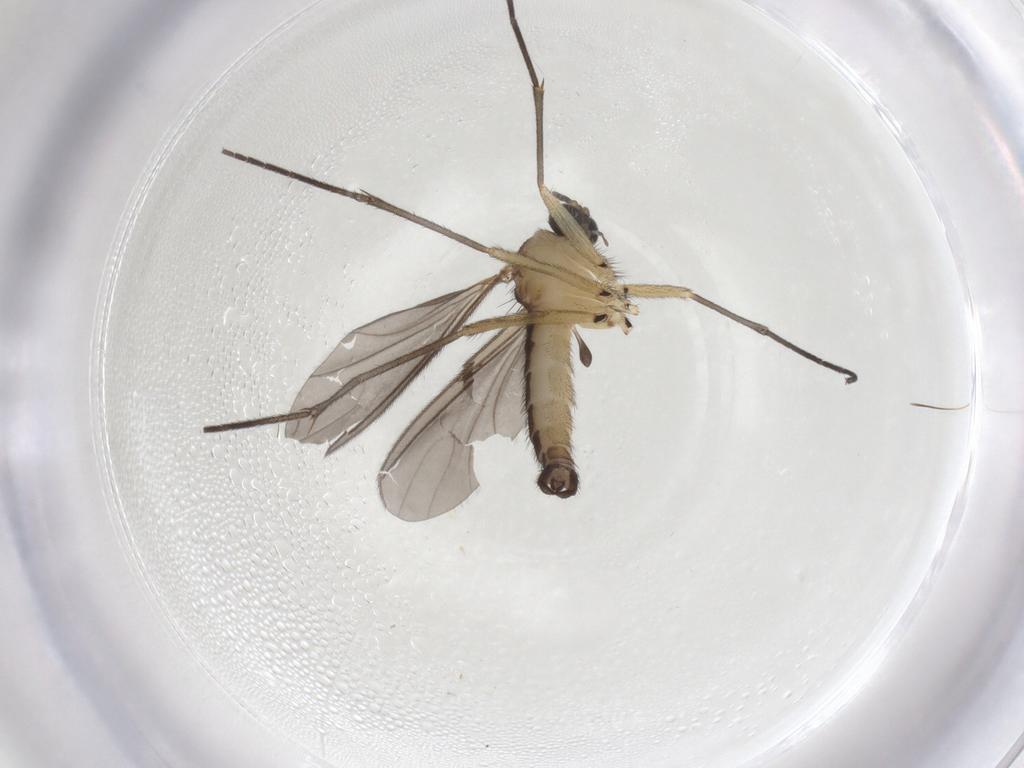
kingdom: Animalia
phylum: Arthropoda
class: Insecta
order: Diptera
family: Sciaridae
